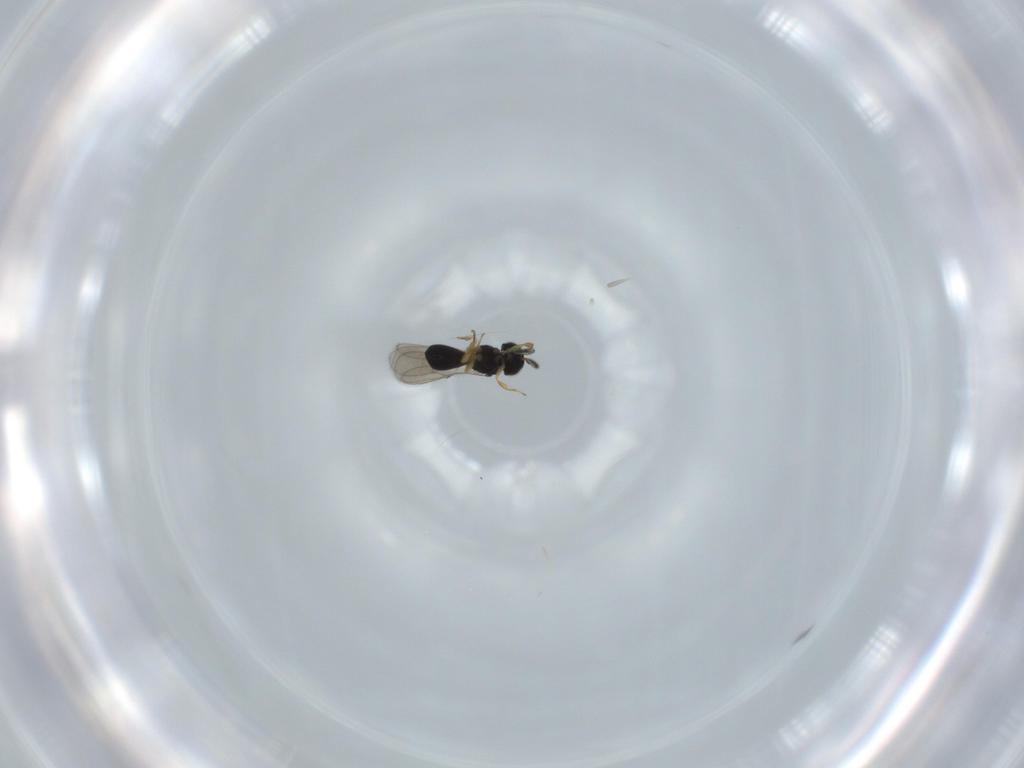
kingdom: Animalia
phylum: Arthropoda
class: Insecta
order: Hymenoptera
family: Scelionidae
